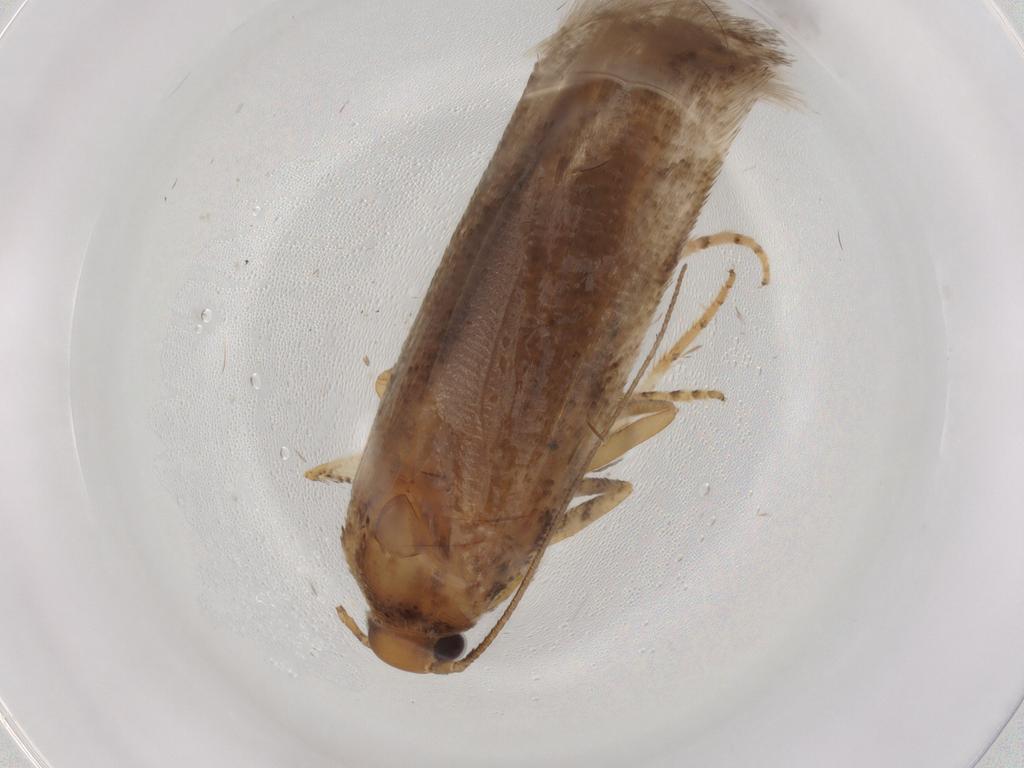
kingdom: Animalia
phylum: Arthropoda
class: Insecta
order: Lepidoptera
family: Gelechiidae
